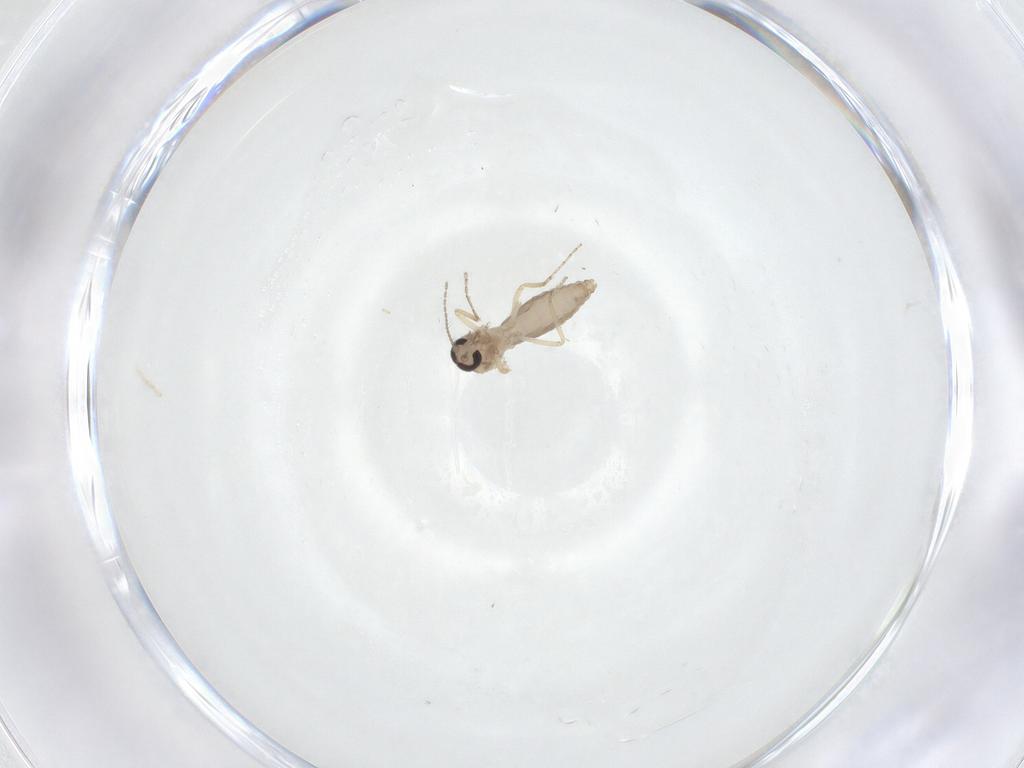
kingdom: Animalia
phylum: Arthropoda
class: Insecta
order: Diptera
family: Ceratopogonidae
